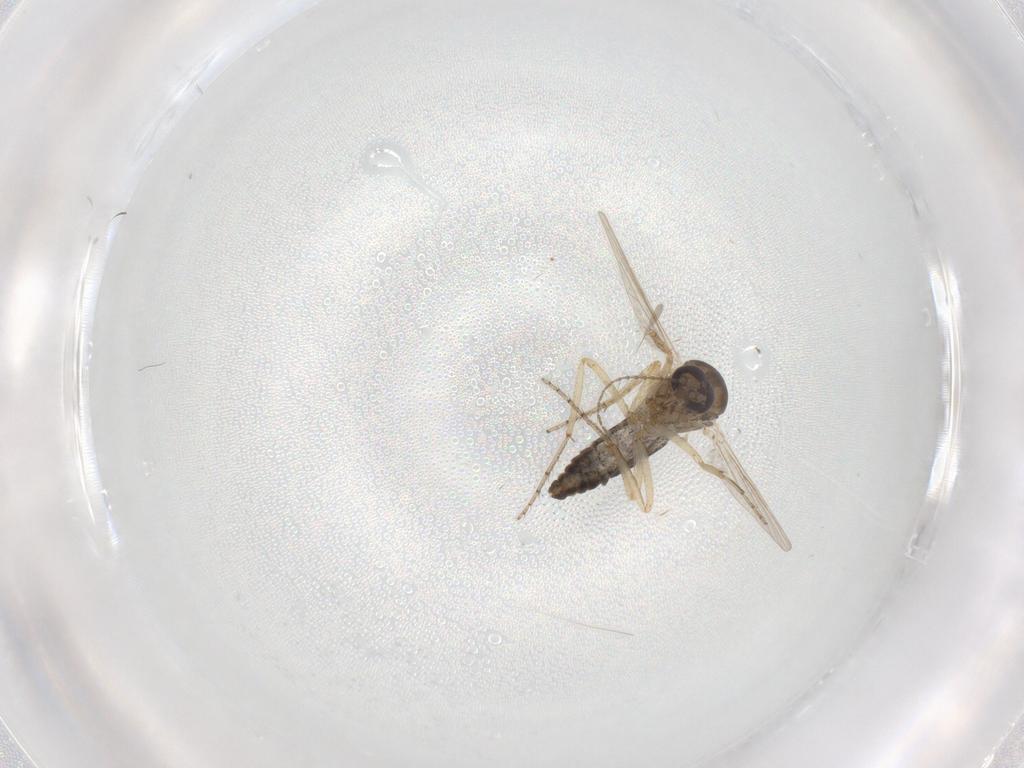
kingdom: Animalia
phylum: Arthropoda
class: Insecta
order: Diptera
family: Ceratopogonidae
